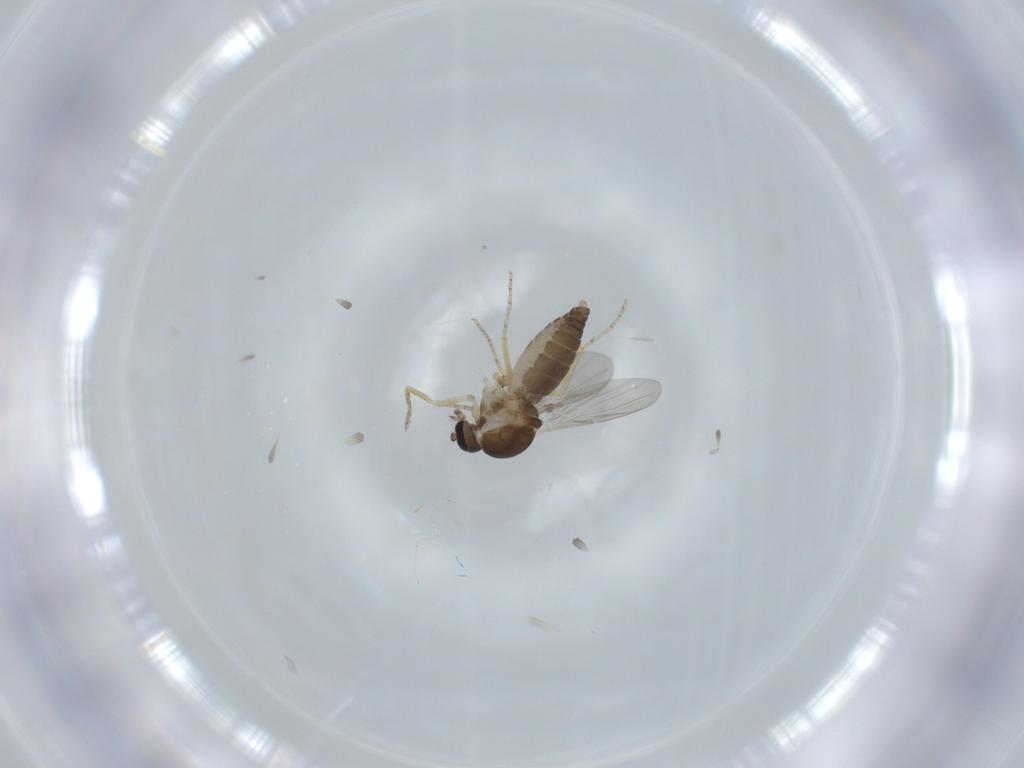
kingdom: Animalia
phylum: Arthropoda
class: Insecta
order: Diptera
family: Ceratopogonidae
